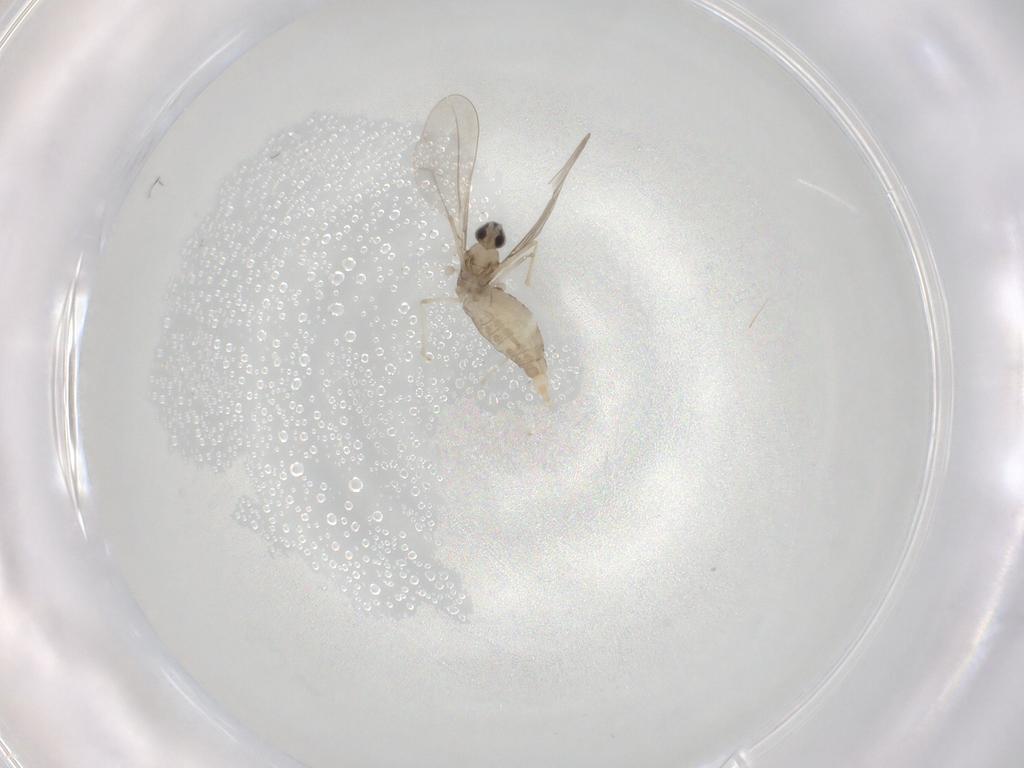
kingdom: Animalia
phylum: Arthropoda
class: Insecta
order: Diptera
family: Cecidomyiidae
